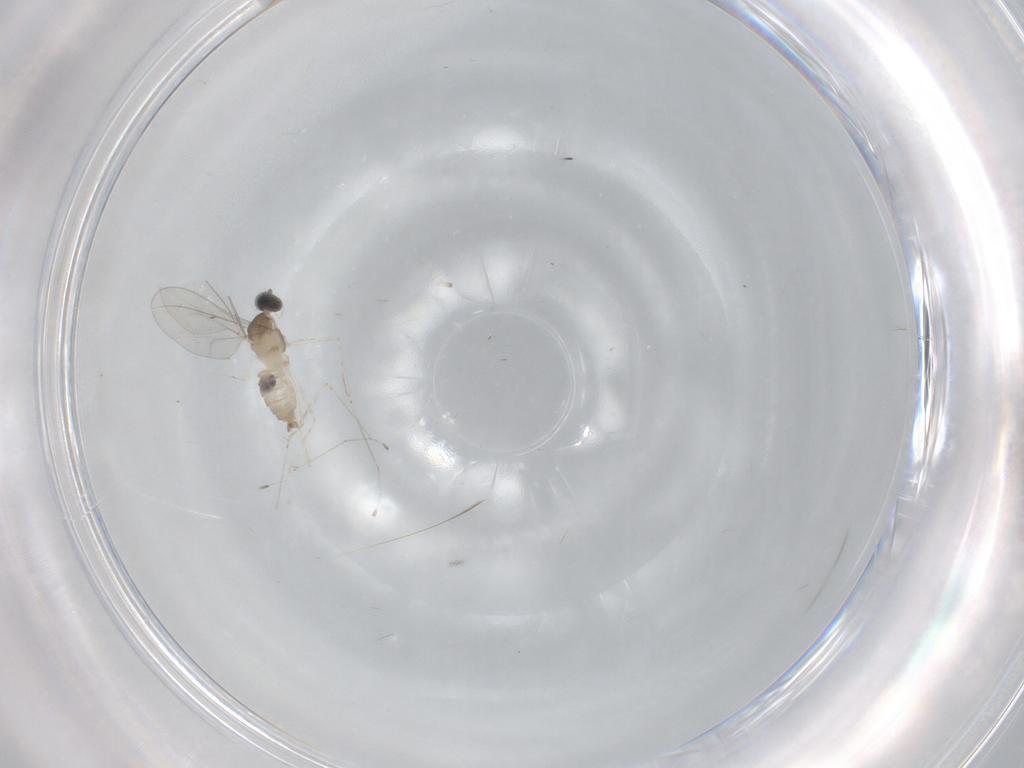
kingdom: Animalia
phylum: Arthropoda
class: Insecta
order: Diptera
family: Cecidomyiidae
